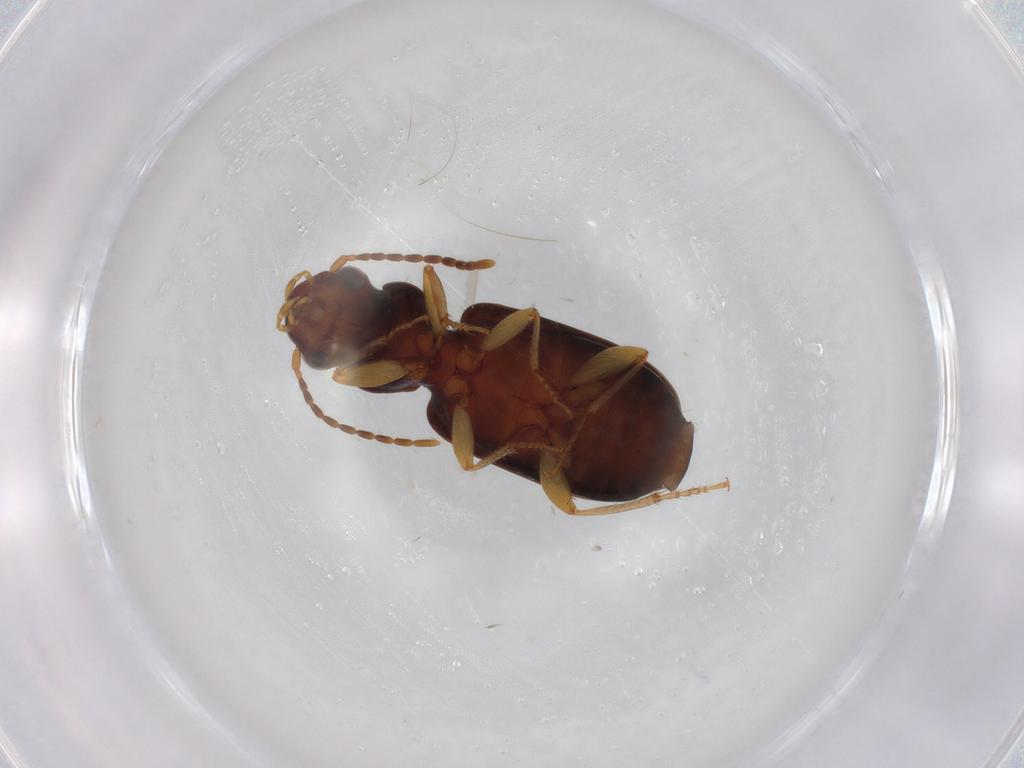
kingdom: Animalia
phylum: Arthropoda
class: Insecta
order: Coleoptera
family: Carabidae
